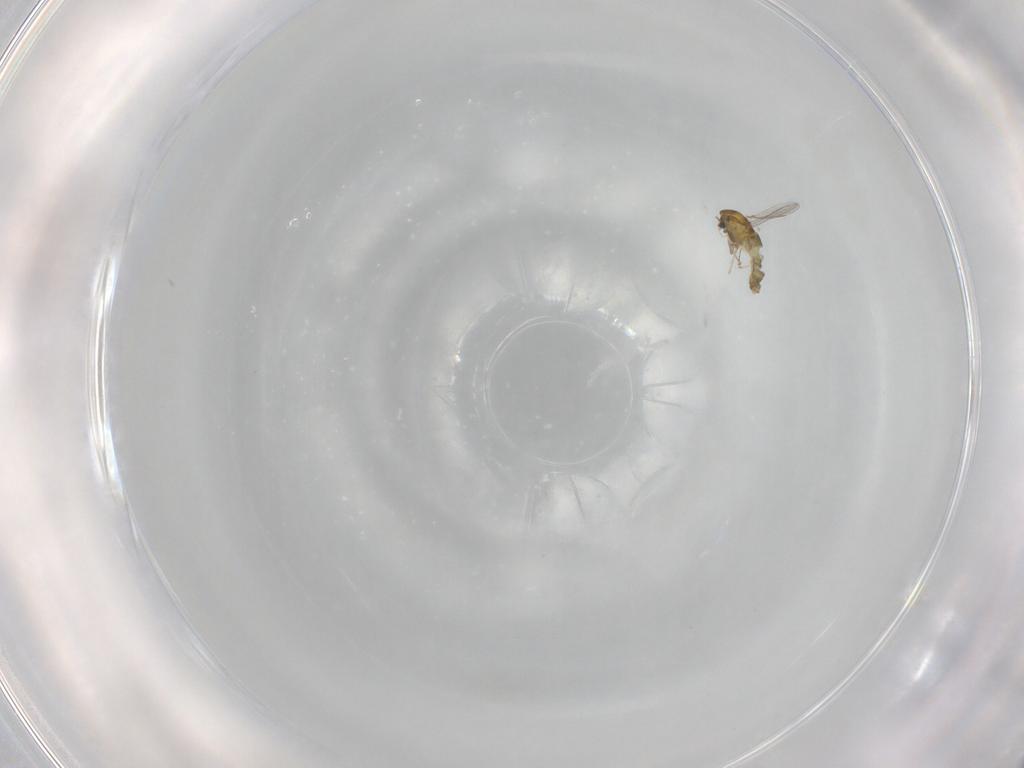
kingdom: Animalia
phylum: Arthropoda
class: Insecta
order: Diptera
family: Chironomidae
